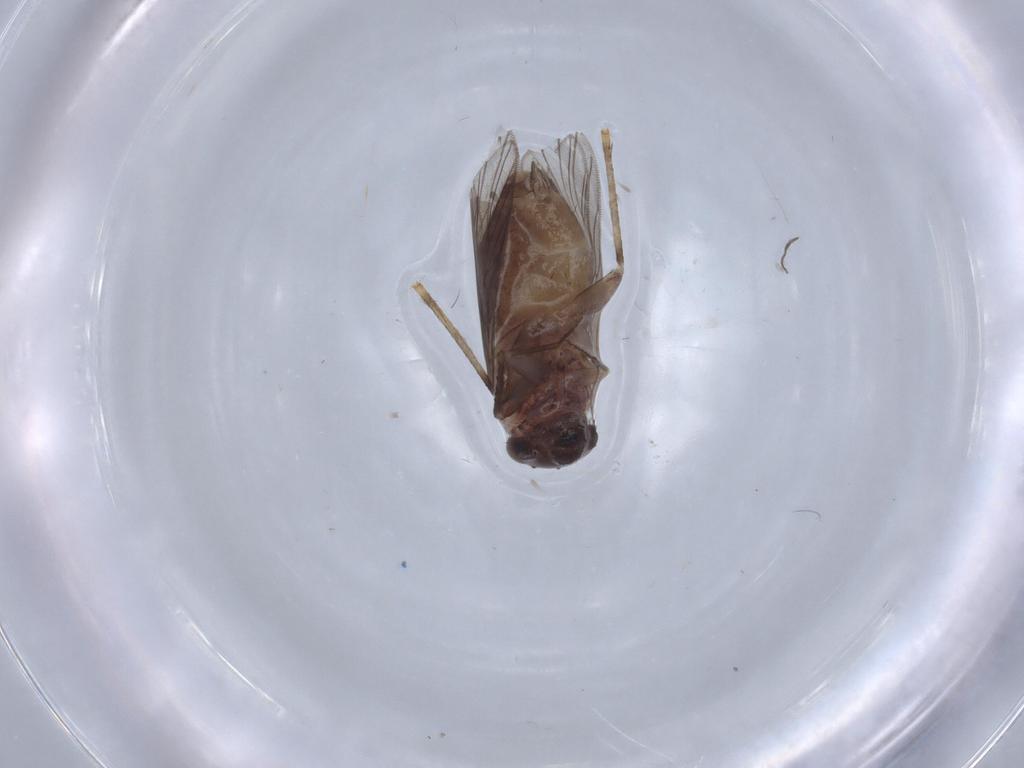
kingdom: Animalia
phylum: Arthropoda
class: Insecta
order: Psocodea
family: Lepidopsocidae
